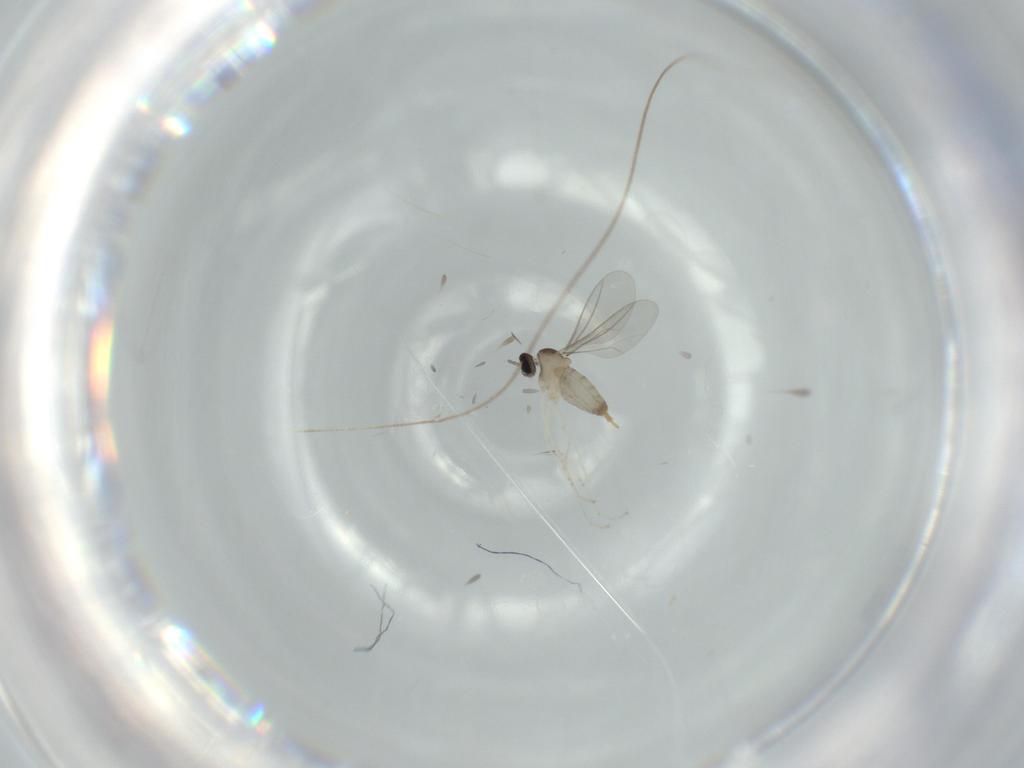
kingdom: Animalia
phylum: Arthropoda
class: Insecta
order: Diptera
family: Cecidomyiidae
